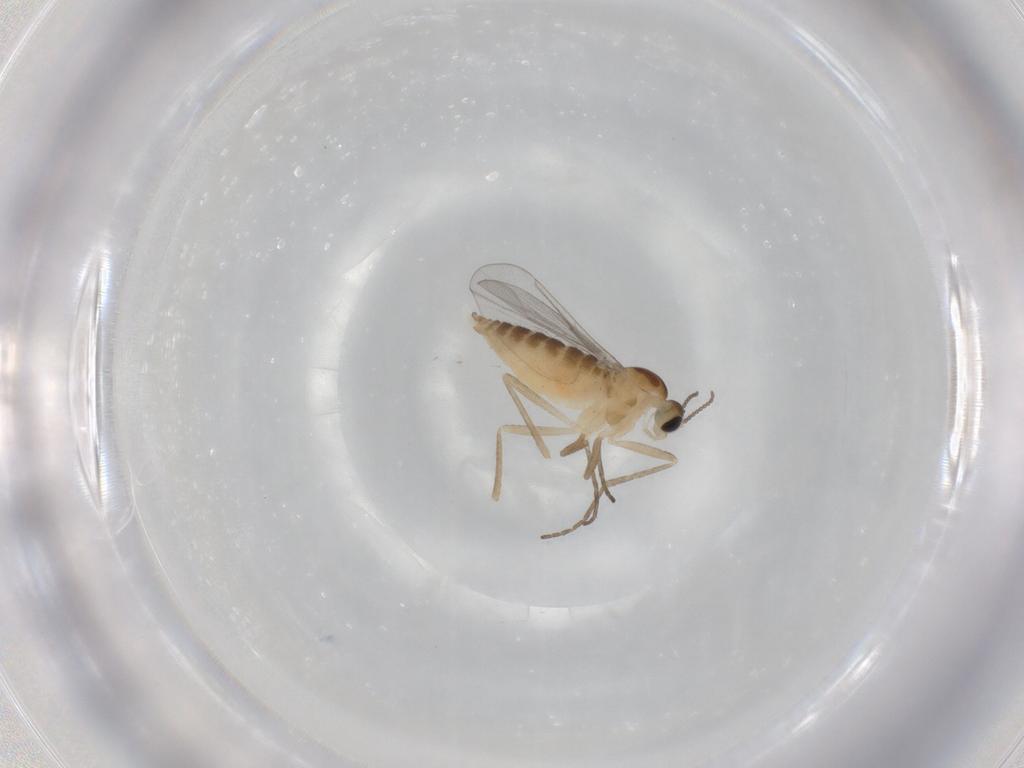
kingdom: Animalia
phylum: Arthropoda
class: Insecta
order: Diptera
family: Cecidomyiidae
